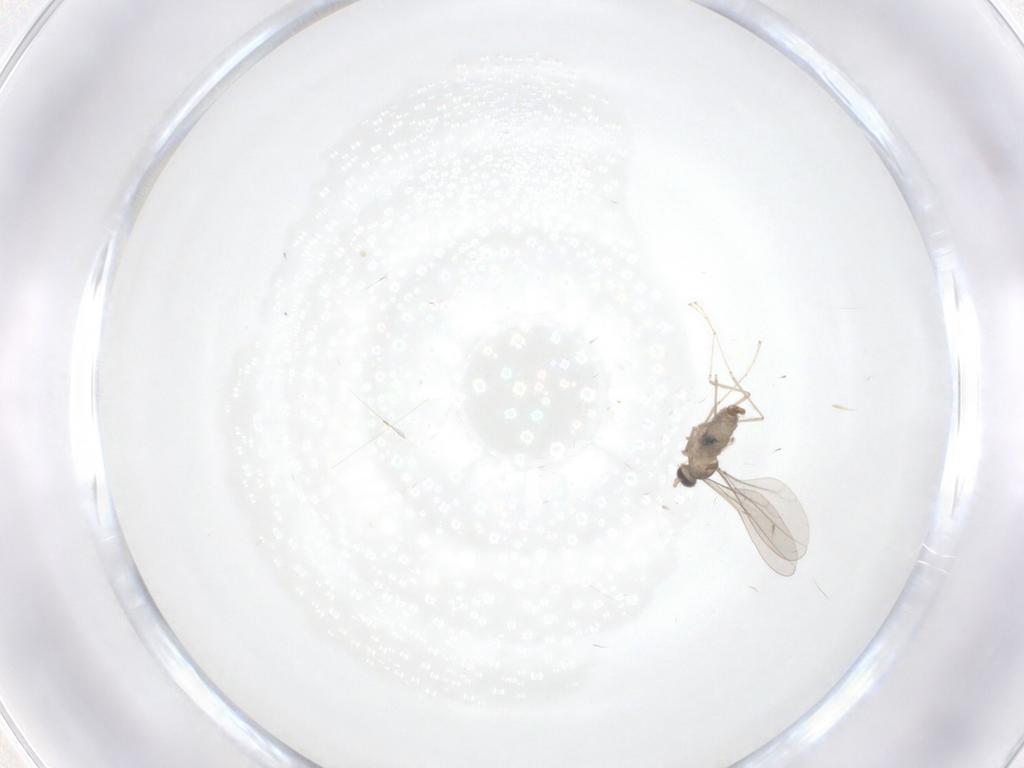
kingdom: Animalia
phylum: Arthropoda
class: Insecta
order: Diptera
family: Cecidomyiidae
